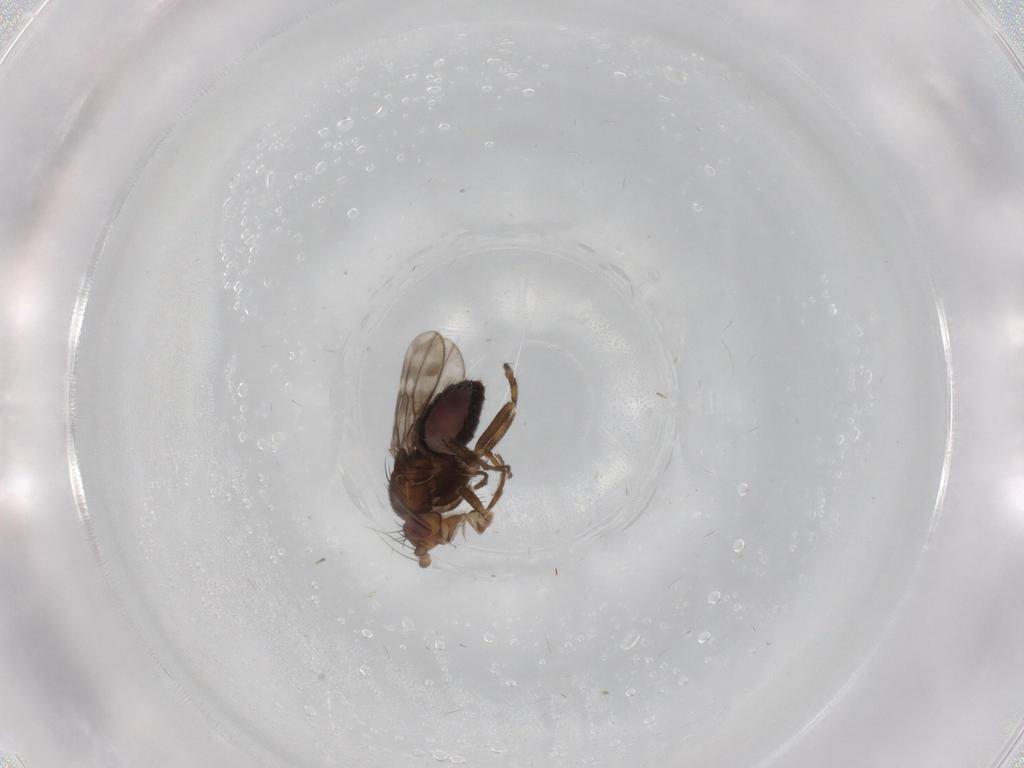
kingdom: Animalia
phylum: Arthropoda
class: Insecta
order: Diptera
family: Sphaeroceridae
